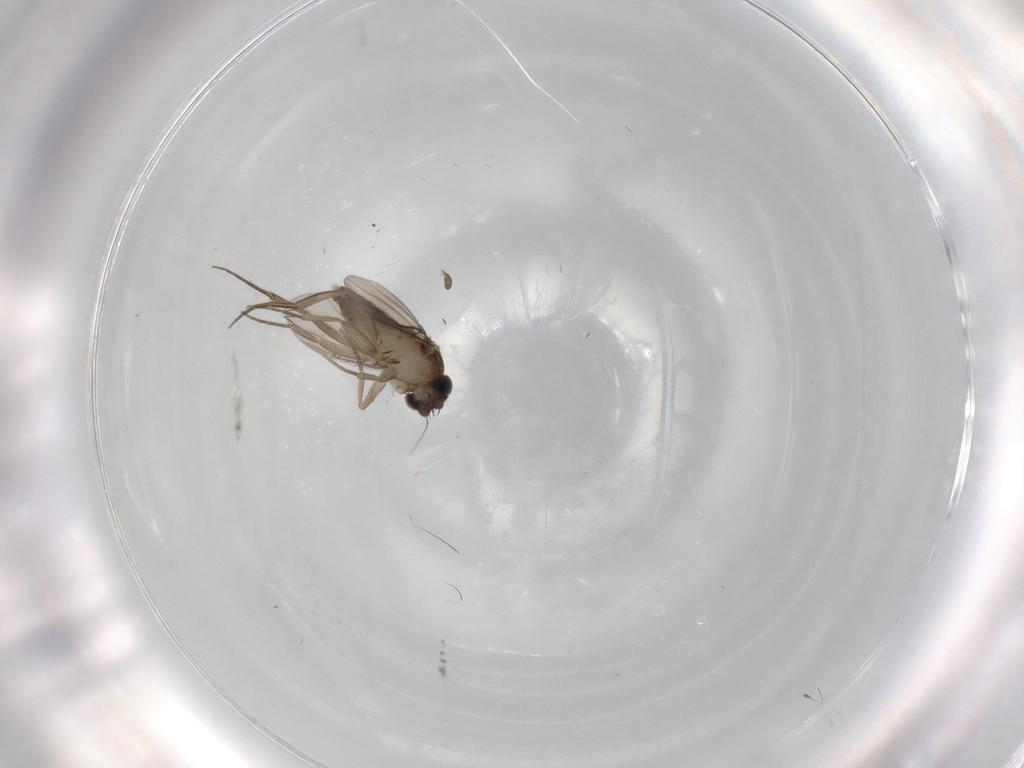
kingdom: Animalia
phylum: Arthropoda
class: Insecta
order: Diptera
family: Phoridae
